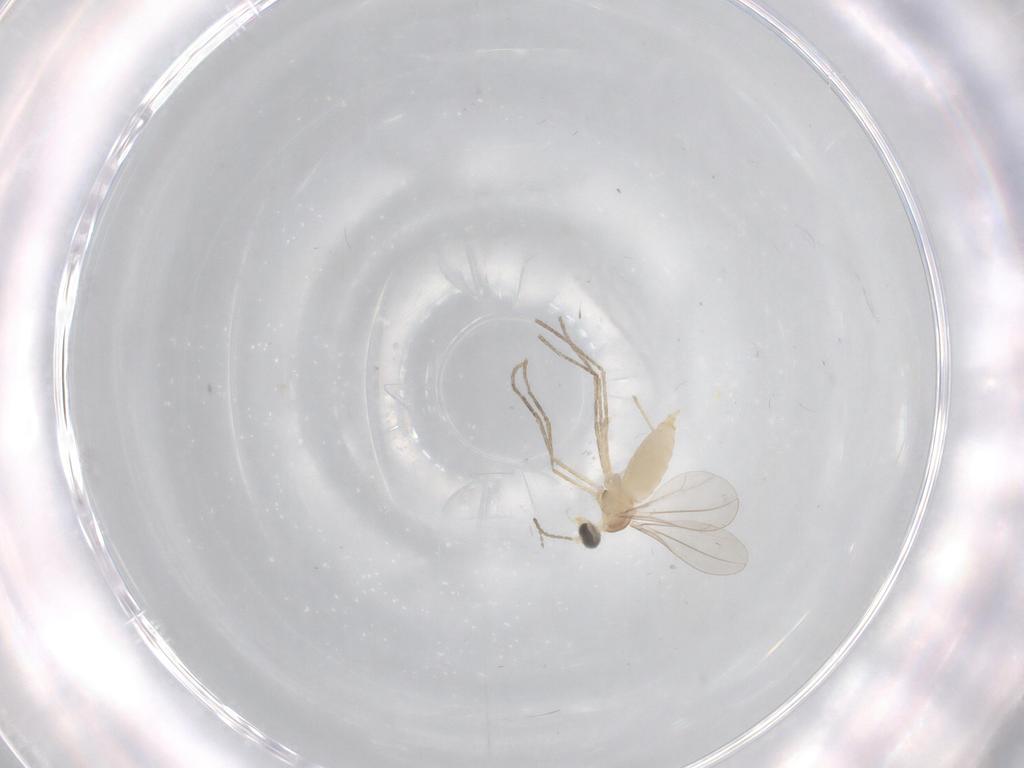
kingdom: Animalia
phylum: Arthropoda
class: Insecta
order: Diptera
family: Cecidomyiidae
